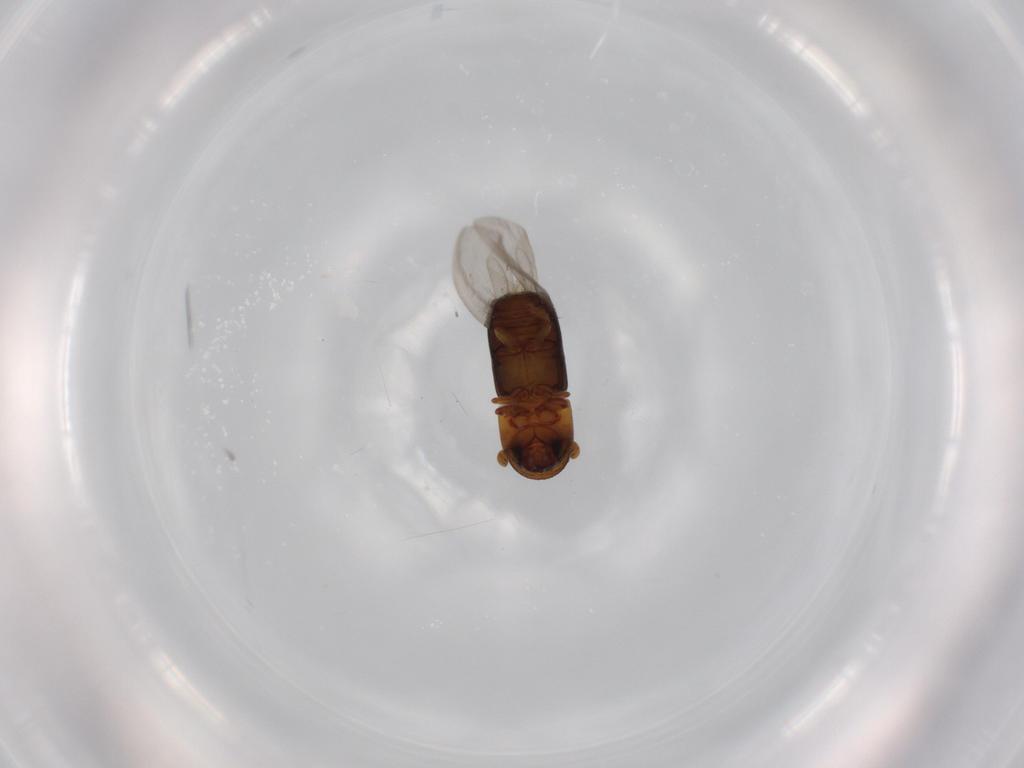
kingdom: Animalia
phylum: Arthropoda
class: Insecta
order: Coleoptera
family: Curculionidae
